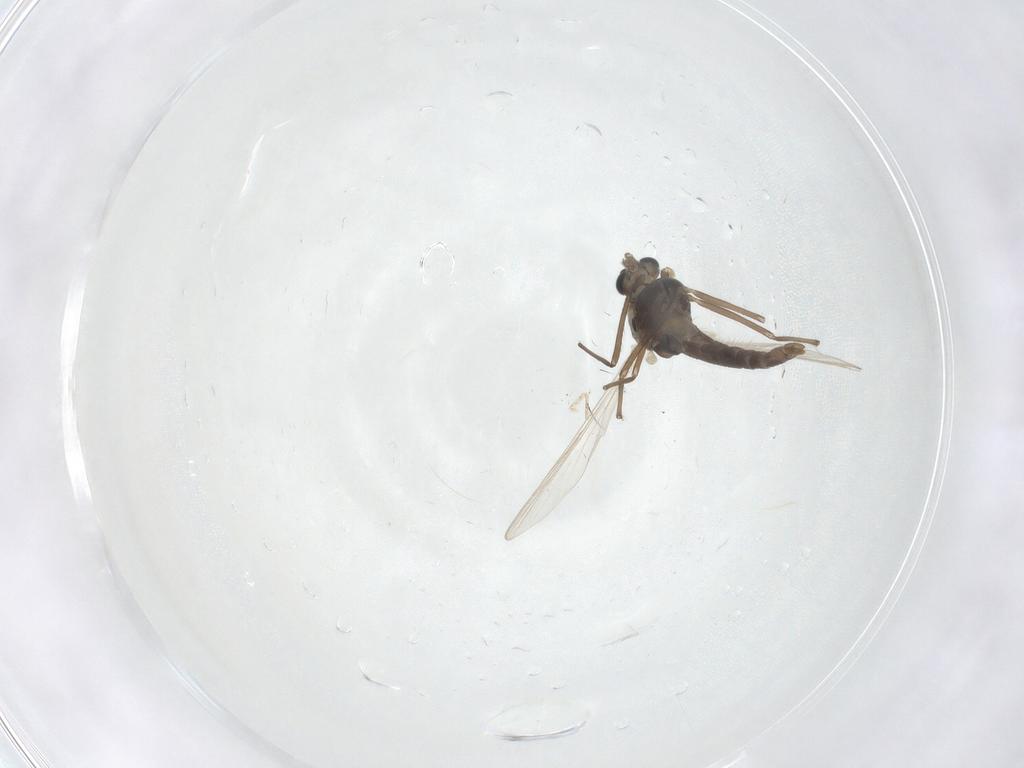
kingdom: Animalia
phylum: Arthropoda
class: Insecta
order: Diptera
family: Chironomidae
